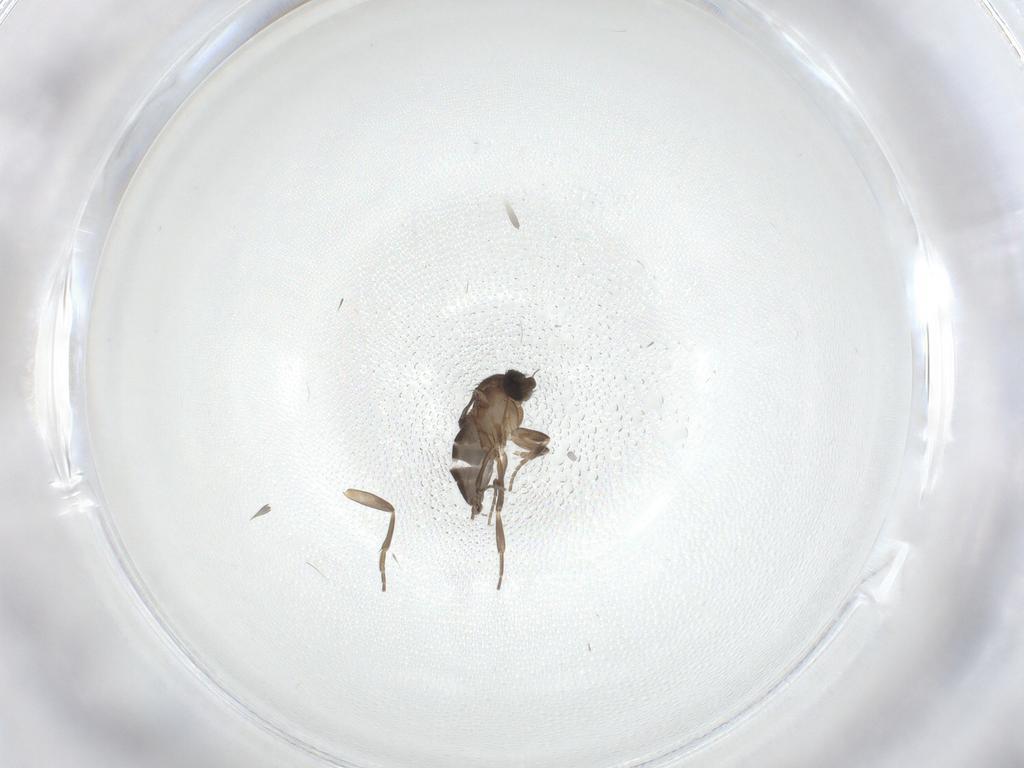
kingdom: Animalia
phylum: Arthropoda
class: Insecta
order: Diptera
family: Phoridae
